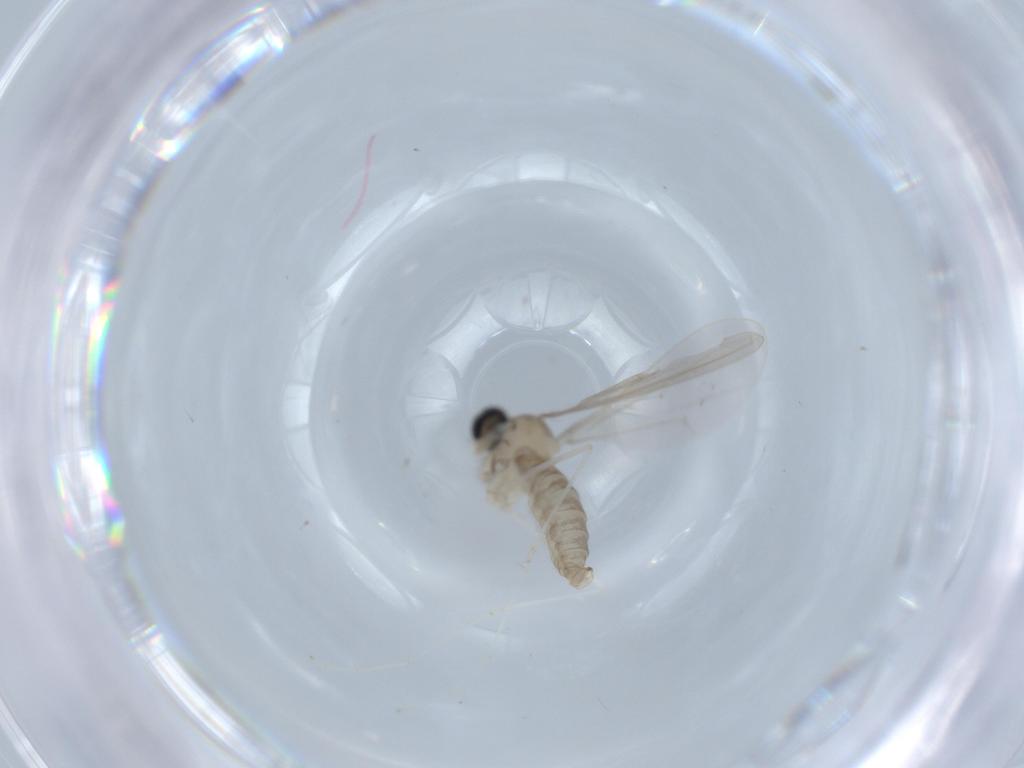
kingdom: Animalia
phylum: Arthropoda
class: Insecta
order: Diptera
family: Cecidomyiidae
